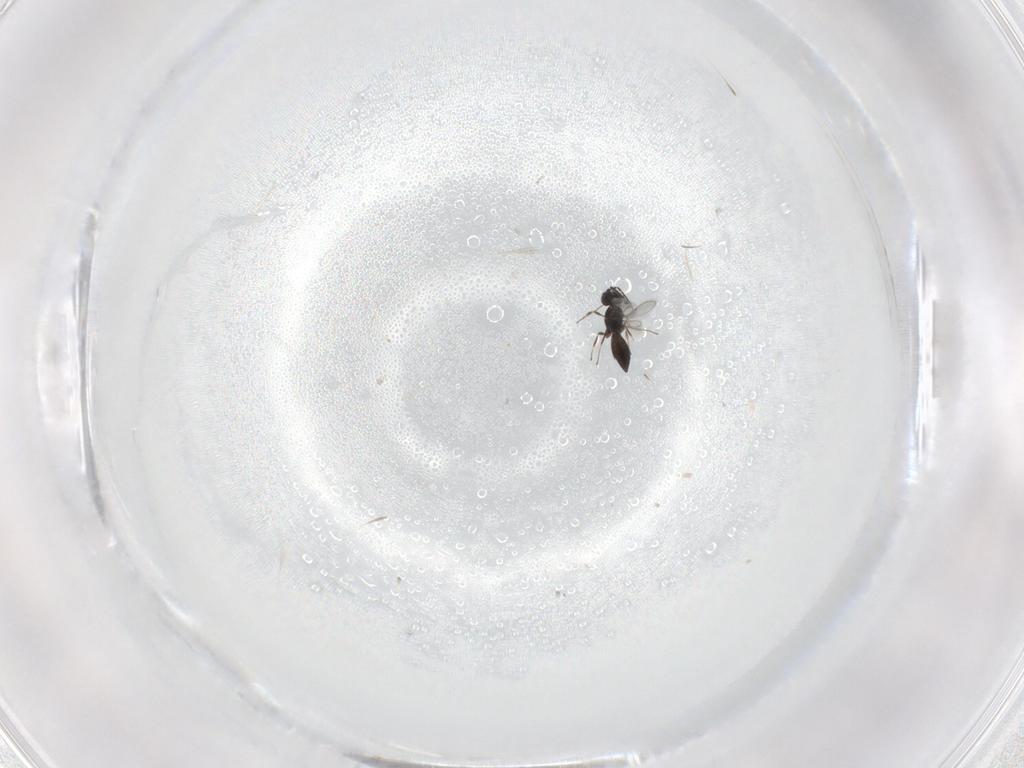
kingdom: Animalia
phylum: Arthropoda
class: Insecta
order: Hymenoptera
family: Scelionidae
